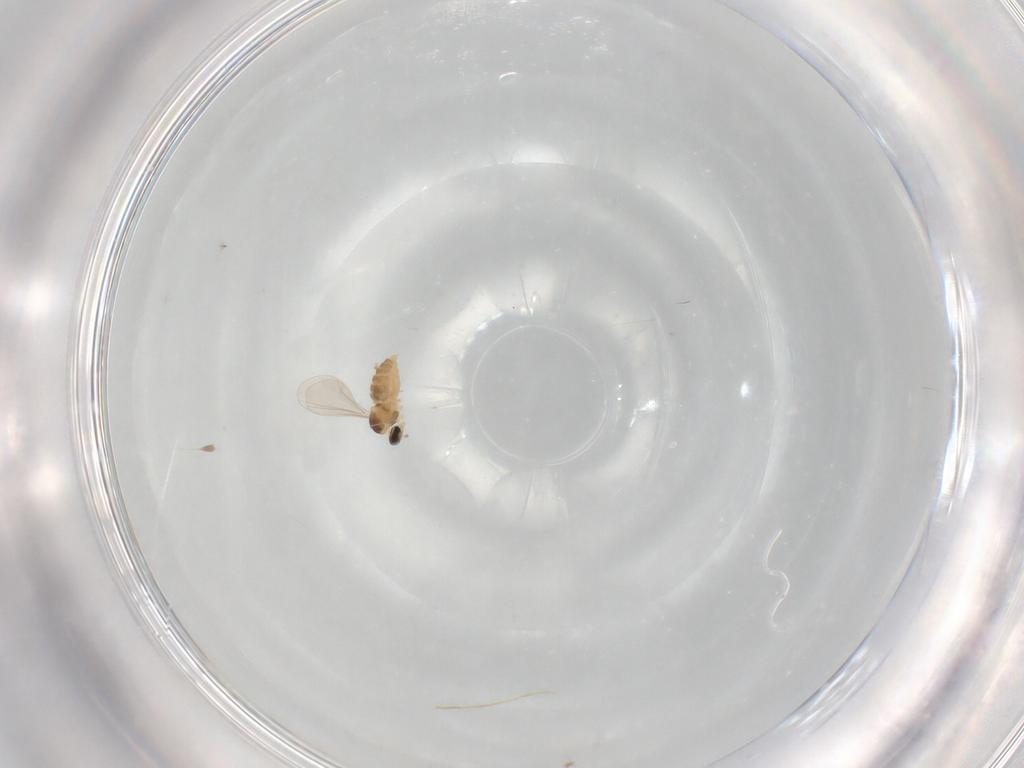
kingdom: Animalia
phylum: Arthropoda
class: Insecta
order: Diptera
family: Cecidomyiidae
